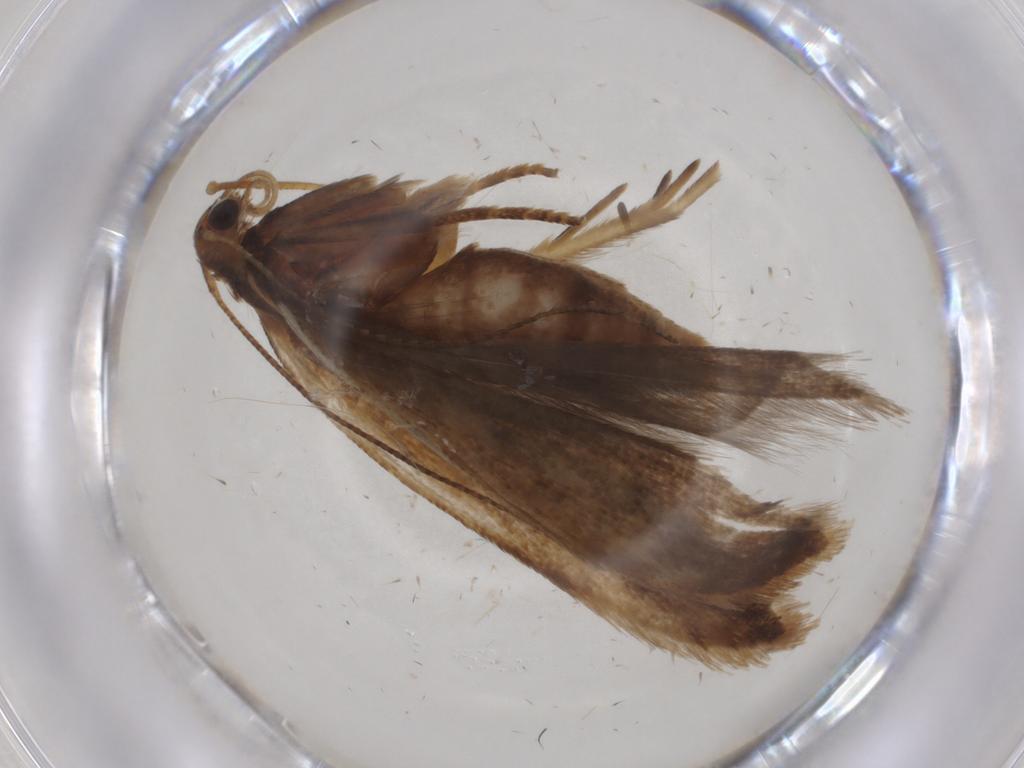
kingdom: Animalia
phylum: Arthropoda
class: Insecta
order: Lepidoptera
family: Gelechiidae
